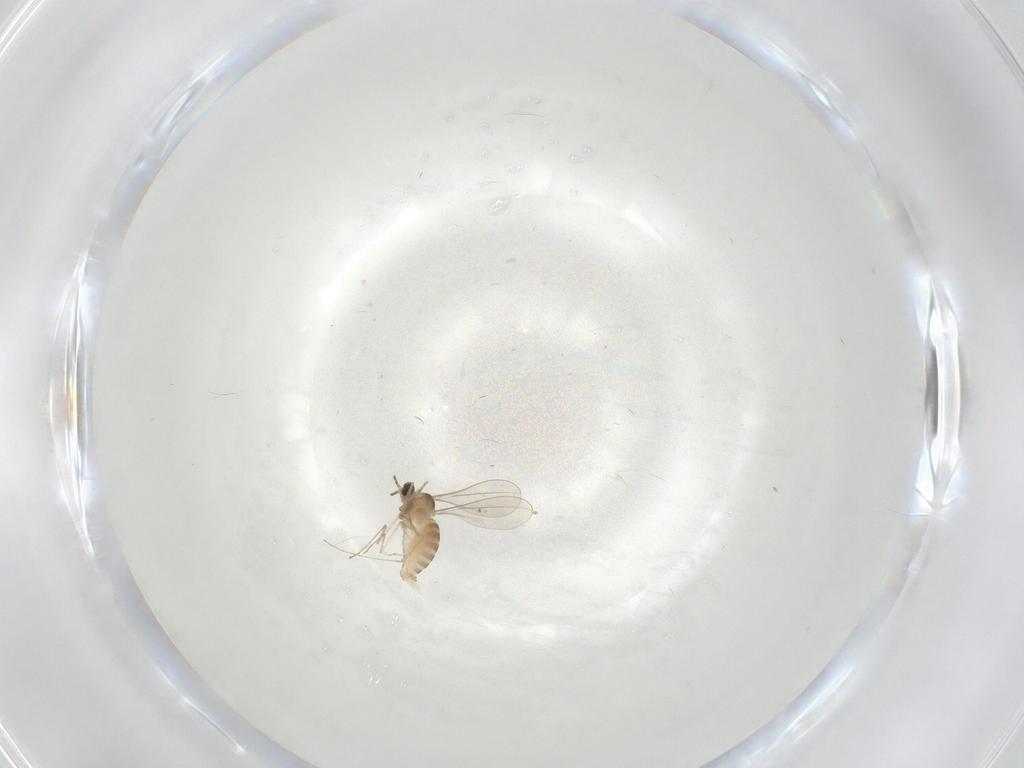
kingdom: Animalia
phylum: Arthropoda
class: Insecta
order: Diptera
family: Cecidomyiidae
